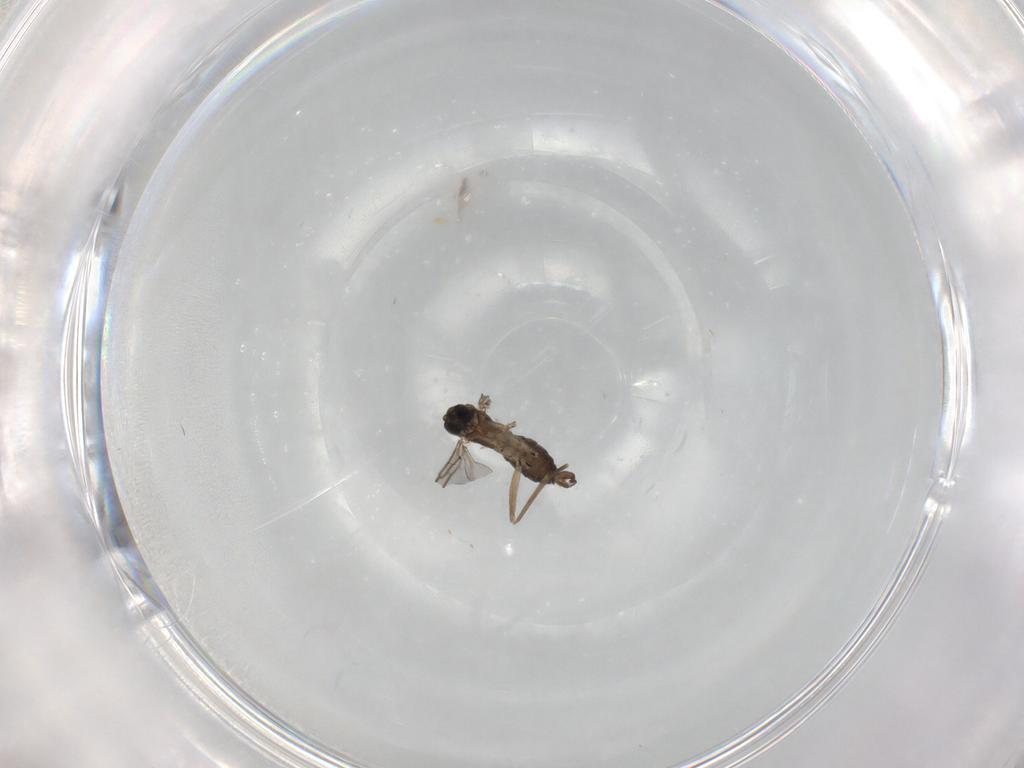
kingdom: Animalia
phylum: Arthropoda
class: Insecta
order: Diptera
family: Sciaridae
